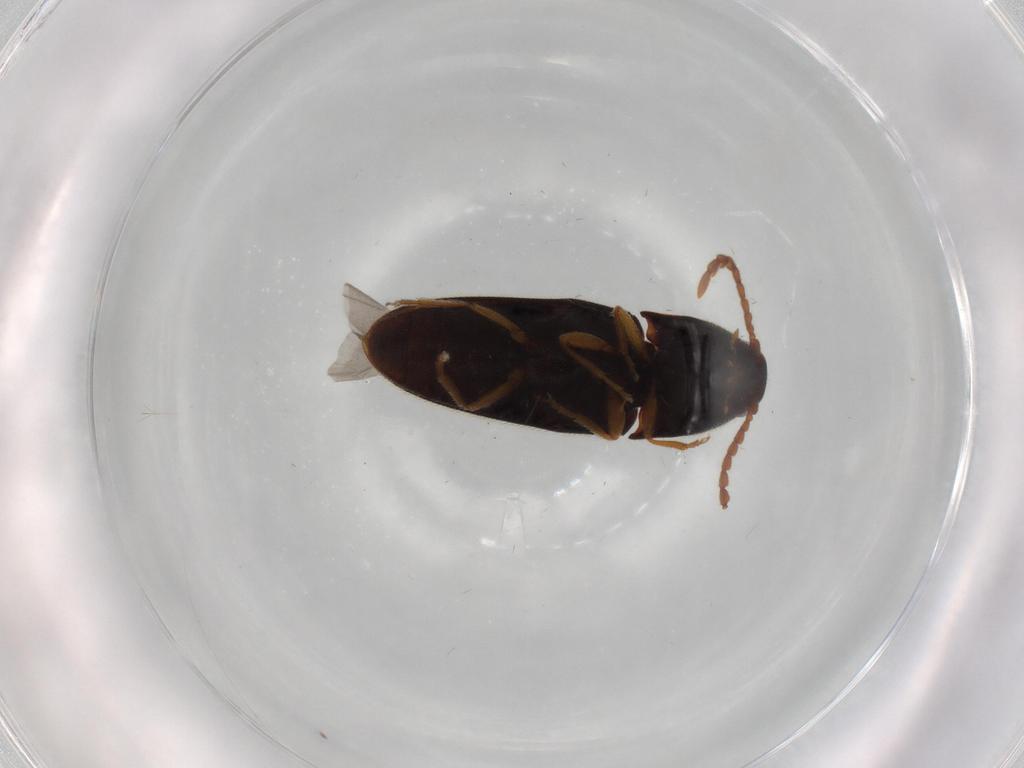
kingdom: Animalia
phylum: Arthropoda
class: Insecta
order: Coleoptera
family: Elateridae
